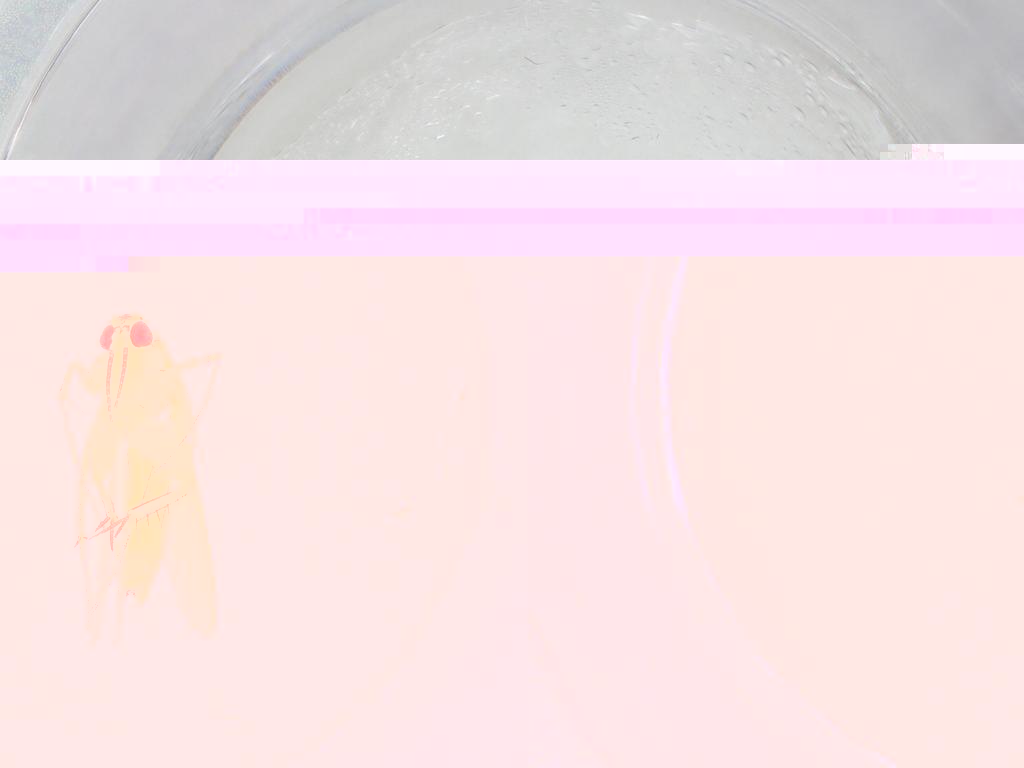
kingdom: Animalia
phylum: Arthropoda
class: Insecta
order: Diptera
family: Mycetophilidae
